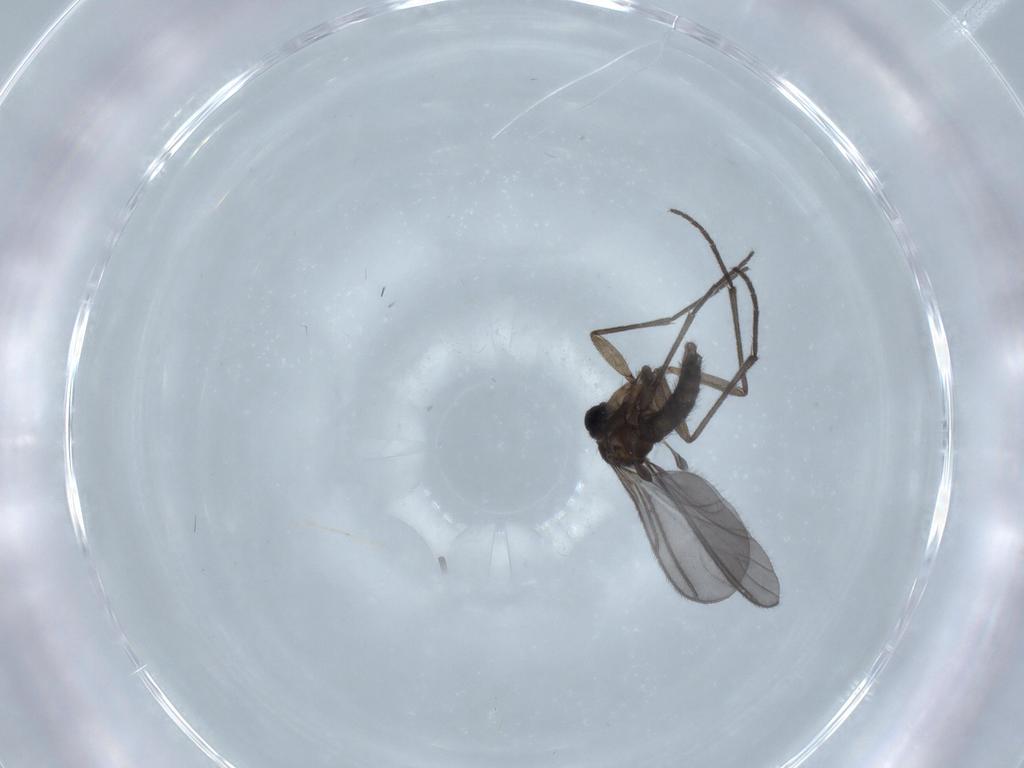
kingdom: Animalia
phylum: Arthropoda
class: Insecta
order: Diptera
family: Sciaridae
